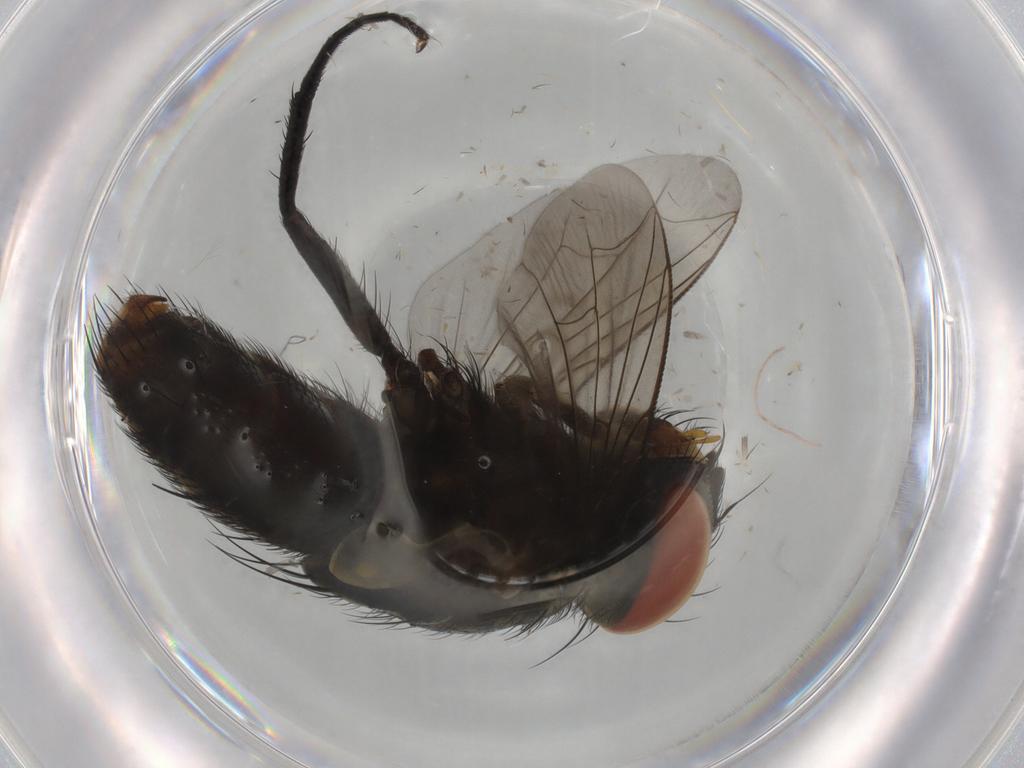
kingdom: Animalia
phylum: Arthropoda
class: Insecta
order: Diptera
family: Sarcophagidae
